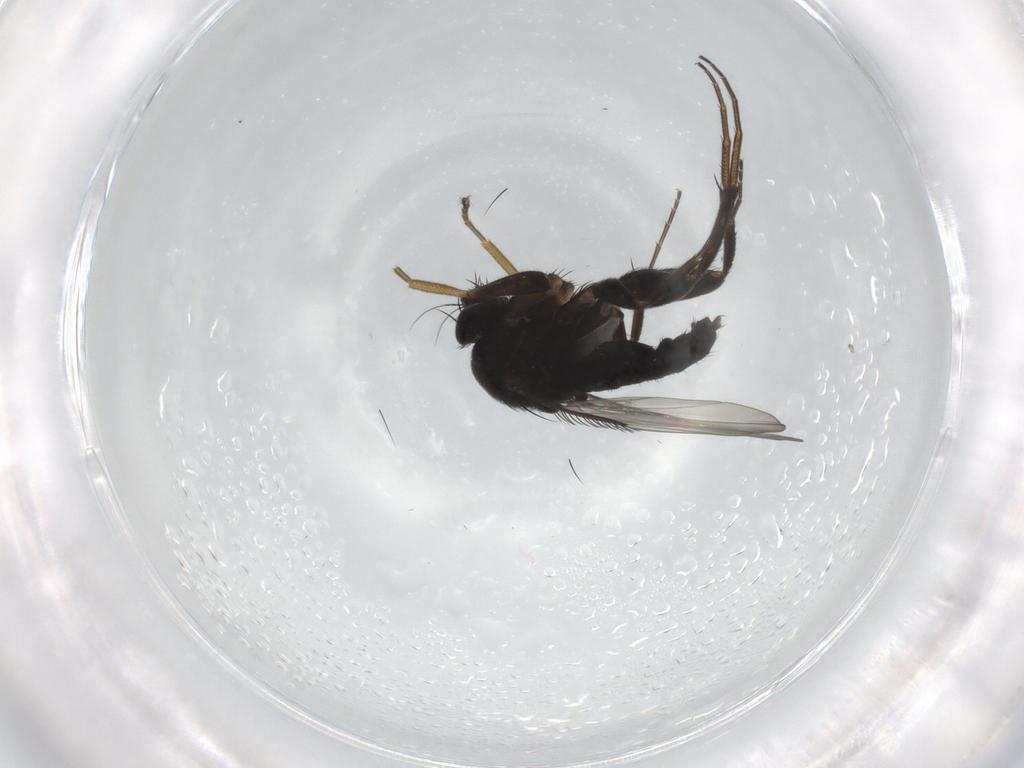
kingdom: Animalia
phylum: Arthropoda
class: Insecta
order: Diptera
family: Phoridae
